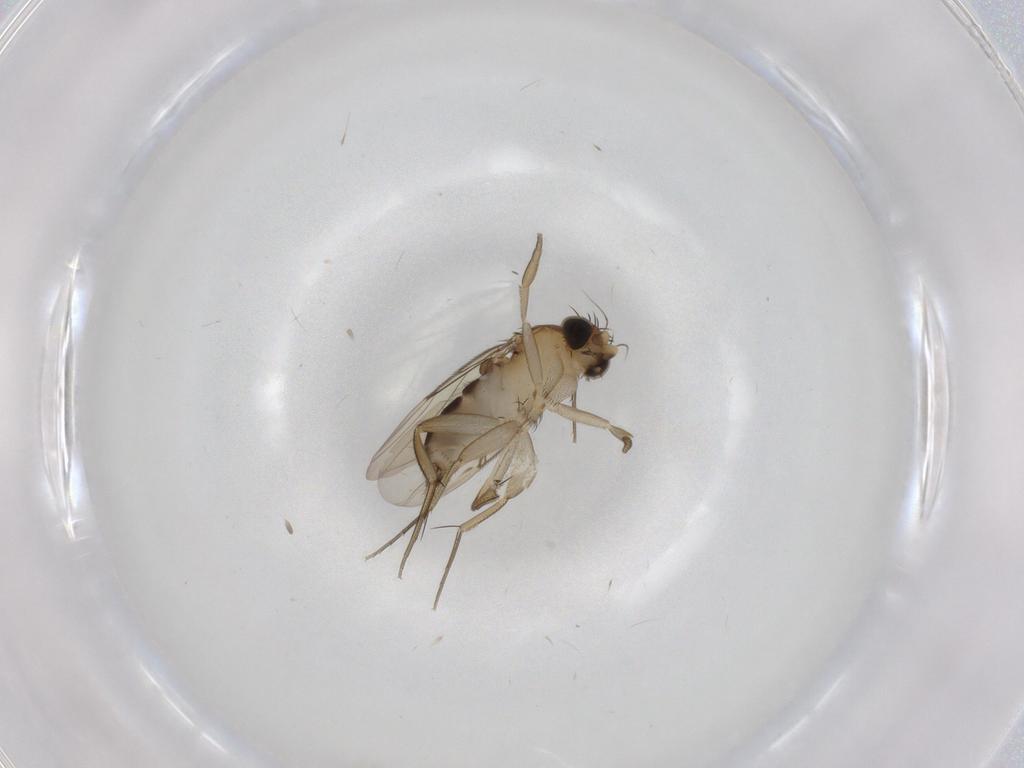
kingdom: Animalia
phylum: Arthropoda
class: Insecta
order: Diptera
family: Phoridae
